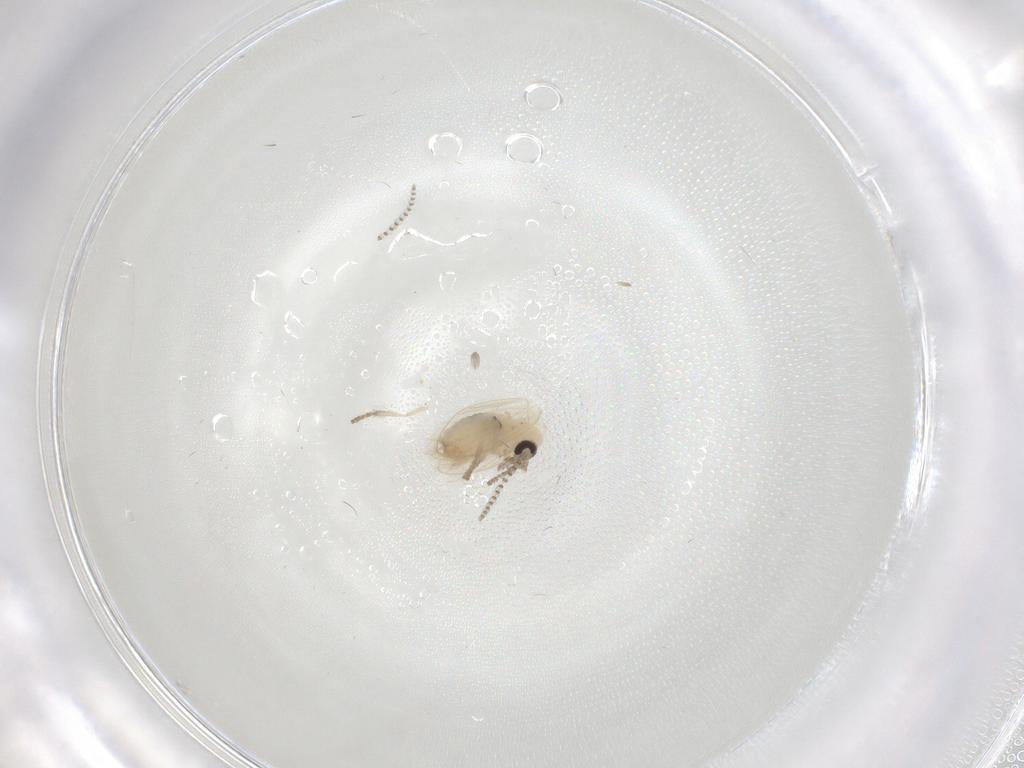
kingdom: Animalia
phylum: Arthropoda
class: Insecta
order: Diptera
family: Psychodidae
